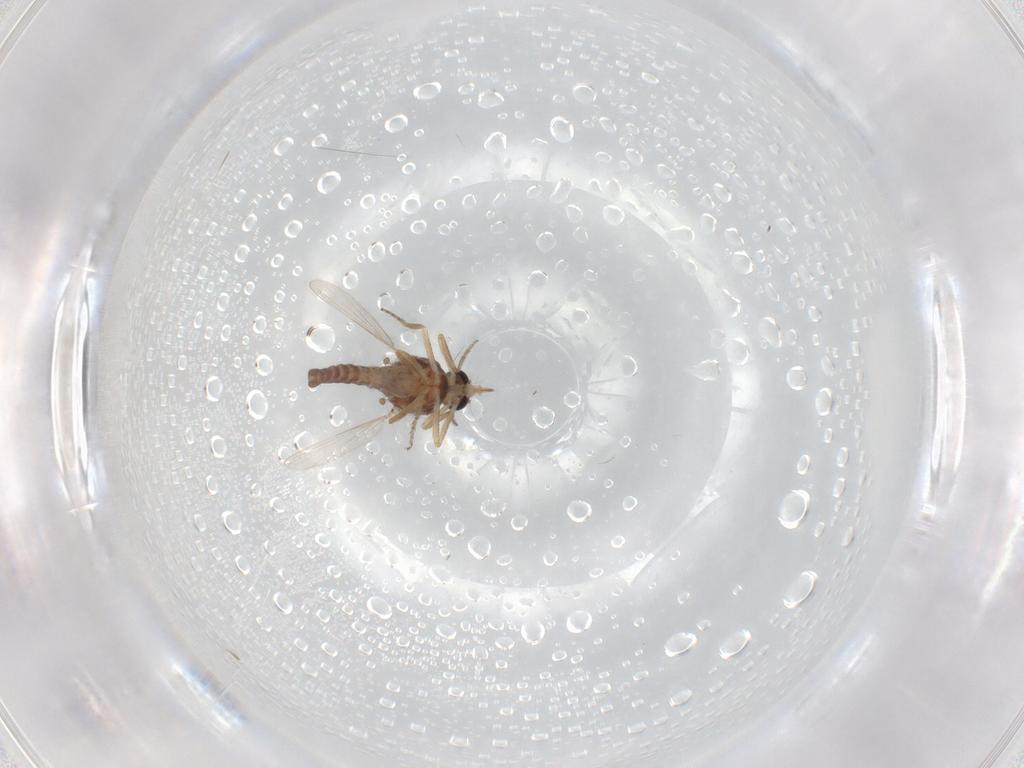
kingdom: Animalia
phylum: Arthropoda
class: Insecta
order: Diptera
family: Ceratopogonidae
